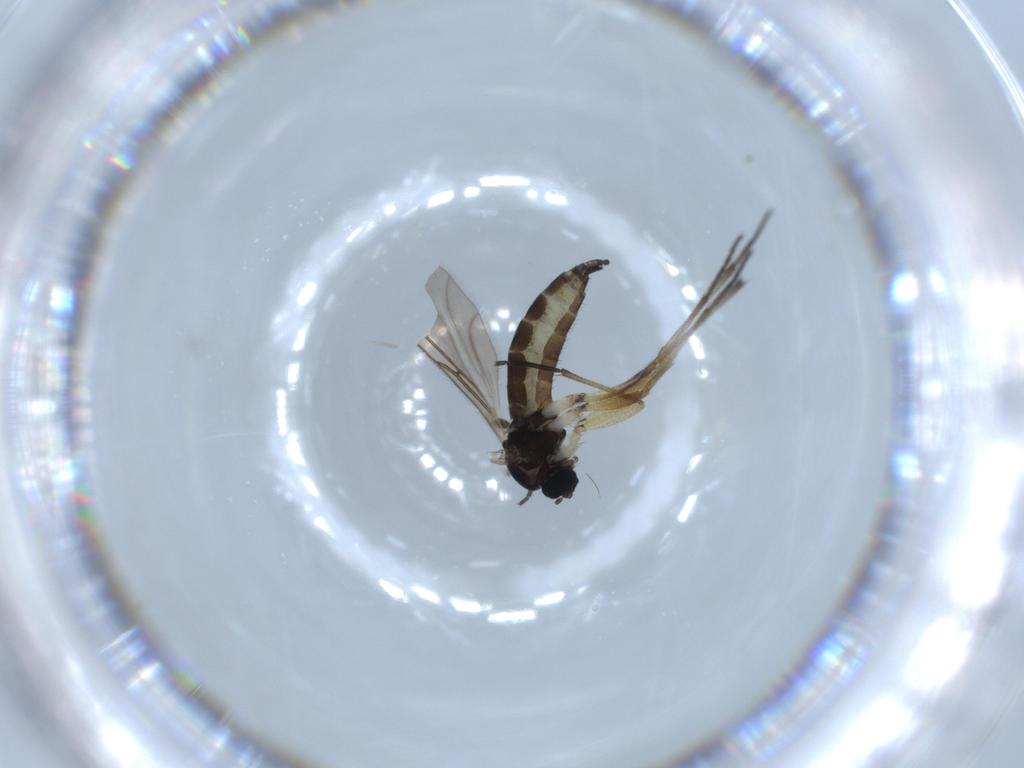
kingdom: Animalia
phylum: Arthropoda
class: Insecta
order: Diptera
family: Sciaridae
